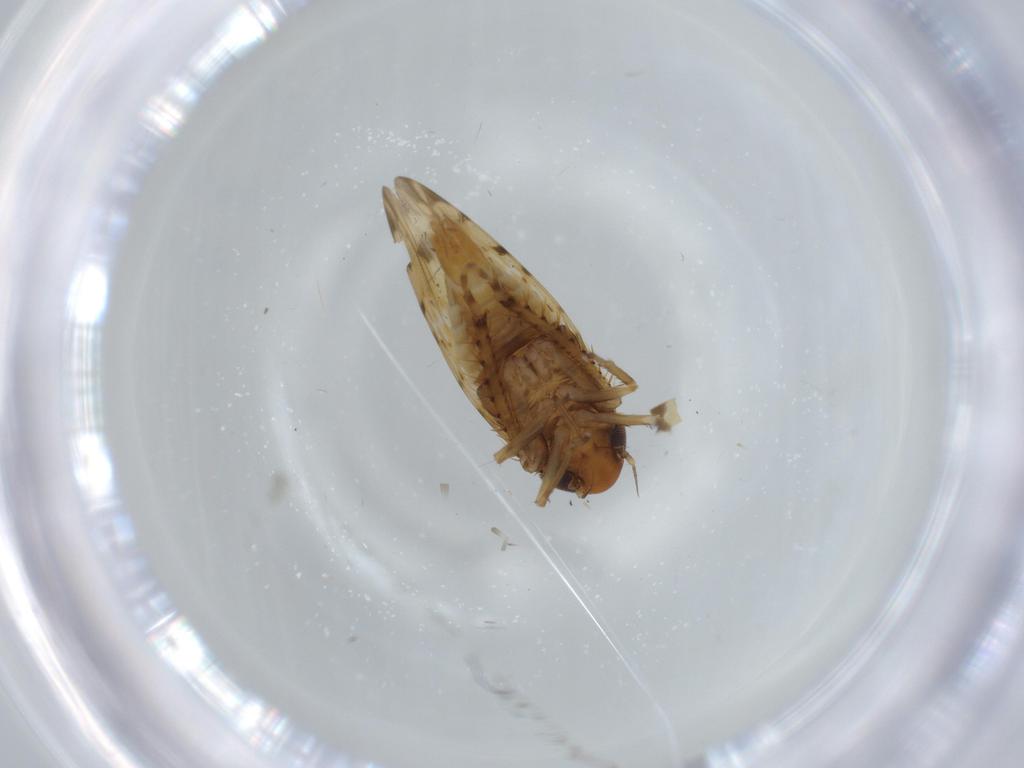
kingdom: Animalia
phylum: Arthropoda
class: Insecta
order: Hemiptera
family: Cicadellidae
